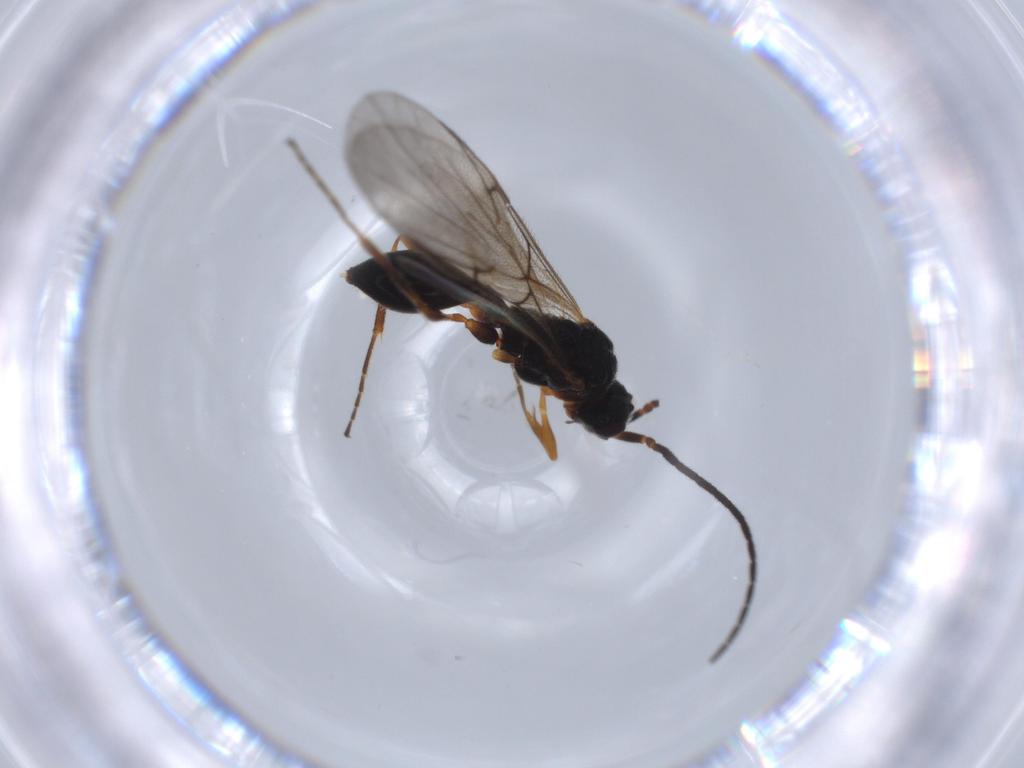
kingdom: Animalia
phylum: Arthropoda
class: Insecta
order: Hymenoptera
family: Diapriidae
